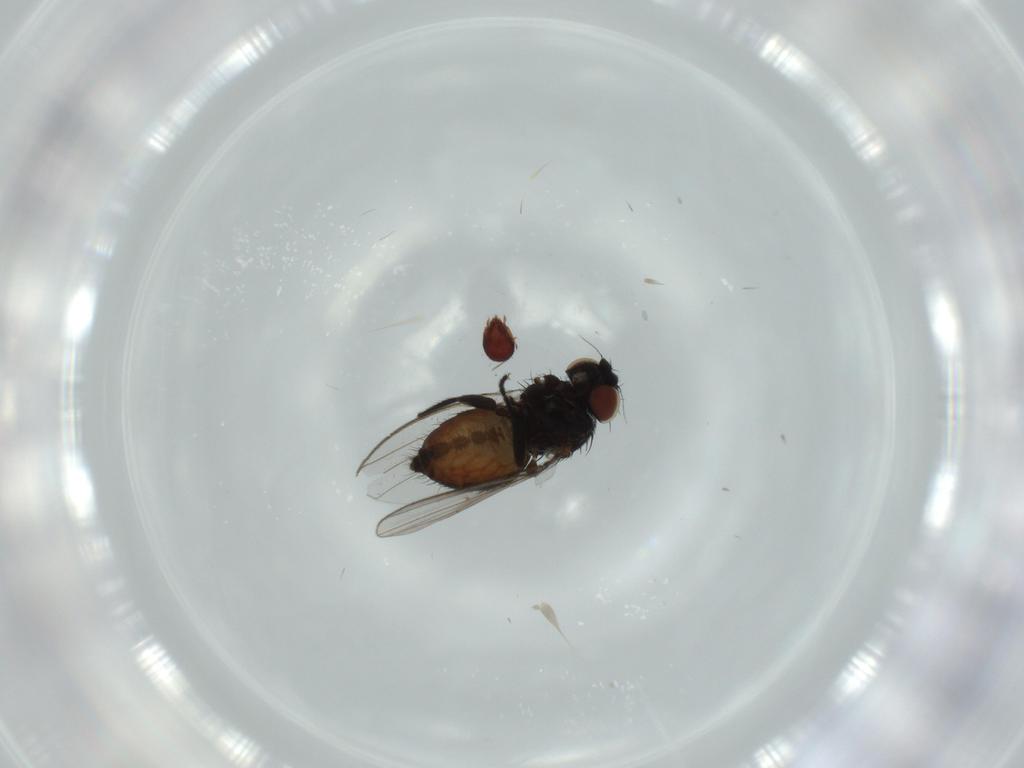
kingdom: Animalia
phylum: Arthropoda
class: Insecta
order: Diptera
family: Milichiidae
